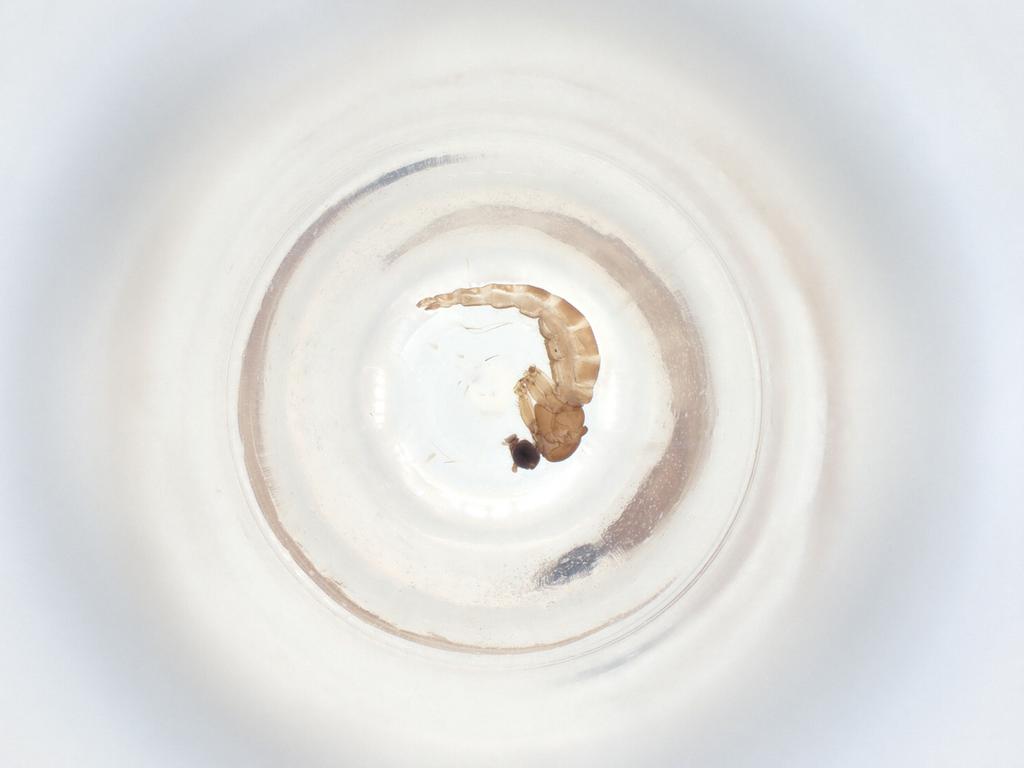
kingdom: Animalia
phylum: Arthropoda
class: Insecta
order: Diptera
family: Sciaridae
